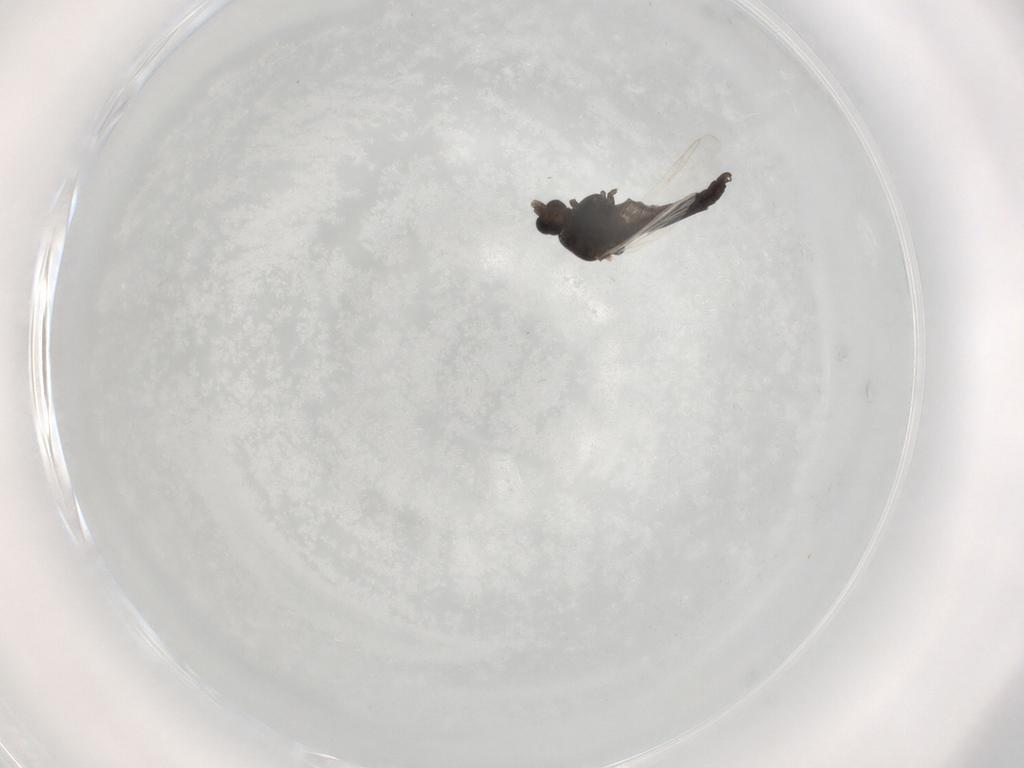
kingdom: Animalia
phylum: Arthropoda
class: Insecta
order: Diptera
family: Chironomidae
